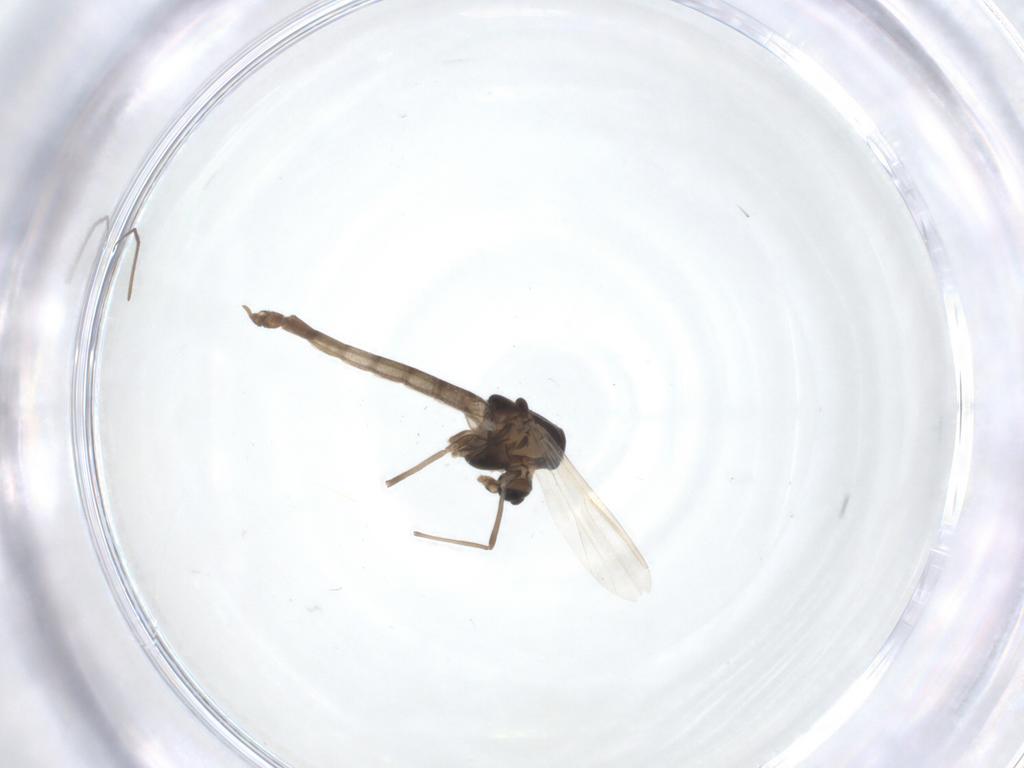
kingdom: Animalia
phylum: Arthropoda
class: Insecta
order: Diptera
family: Chironomidae
